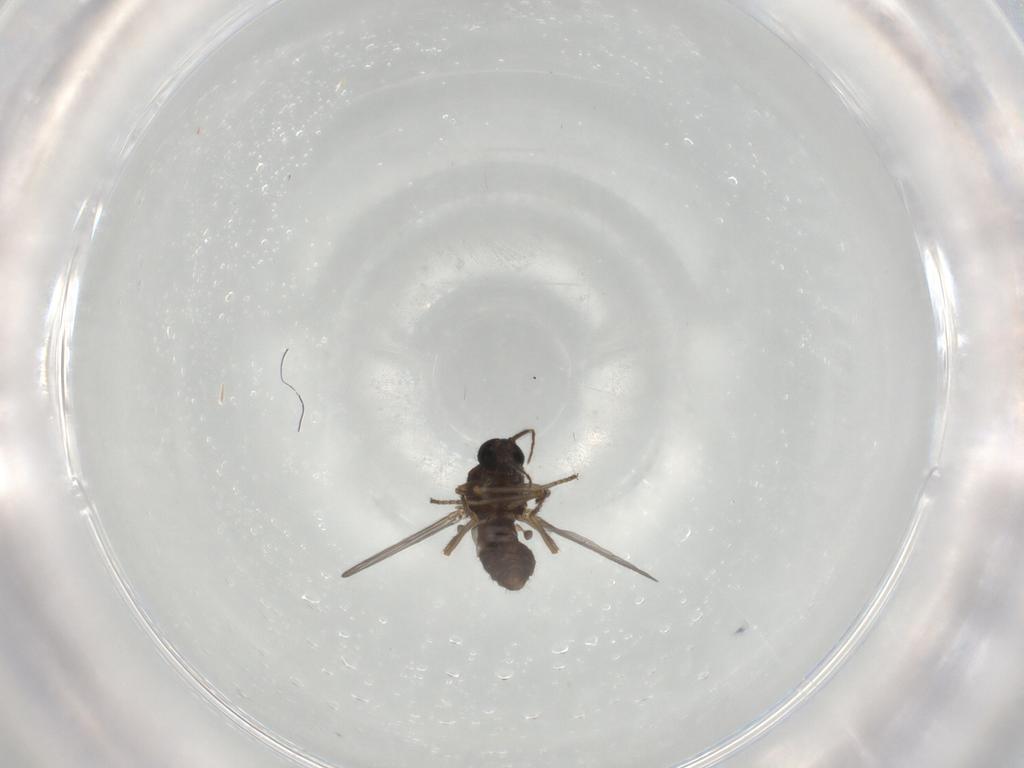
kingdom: Animalia
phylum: Arthropoda
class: Insecta
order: Diptera
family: Ceratopogonidae
